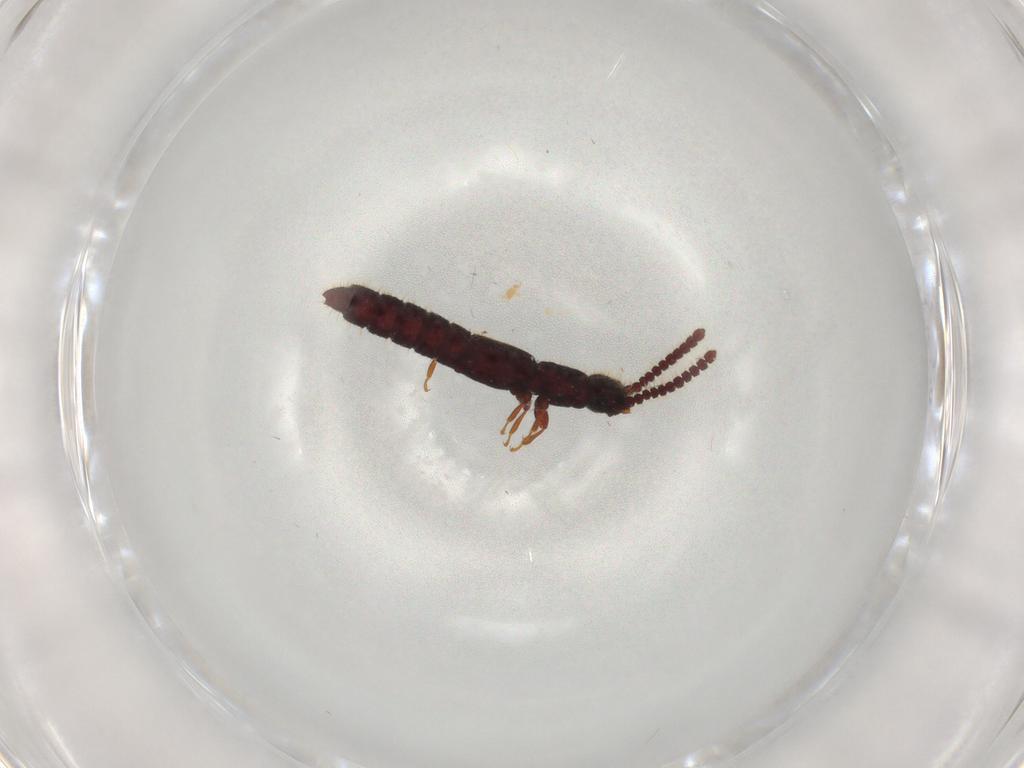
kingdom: Animalia
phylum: Arthropoda
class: Insecta
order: Coleoptera
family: Staphylinidae
